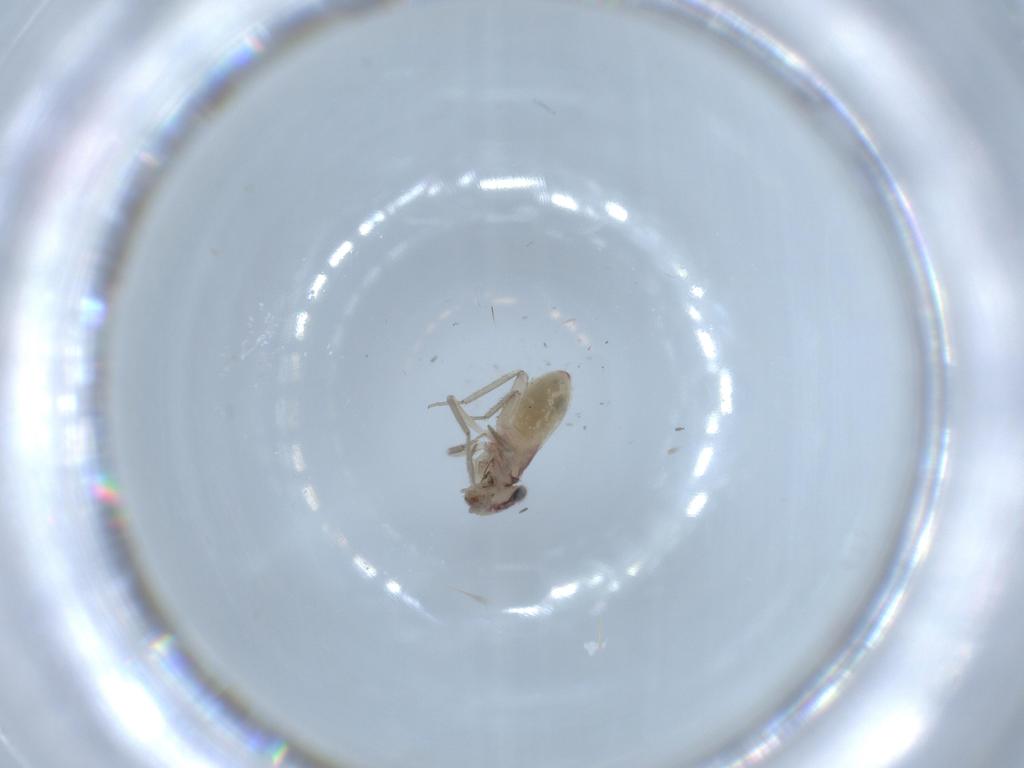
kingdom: Animalia
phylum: Arthropoda
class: Insecta
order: Psocodea
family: Lepidopsocidae
